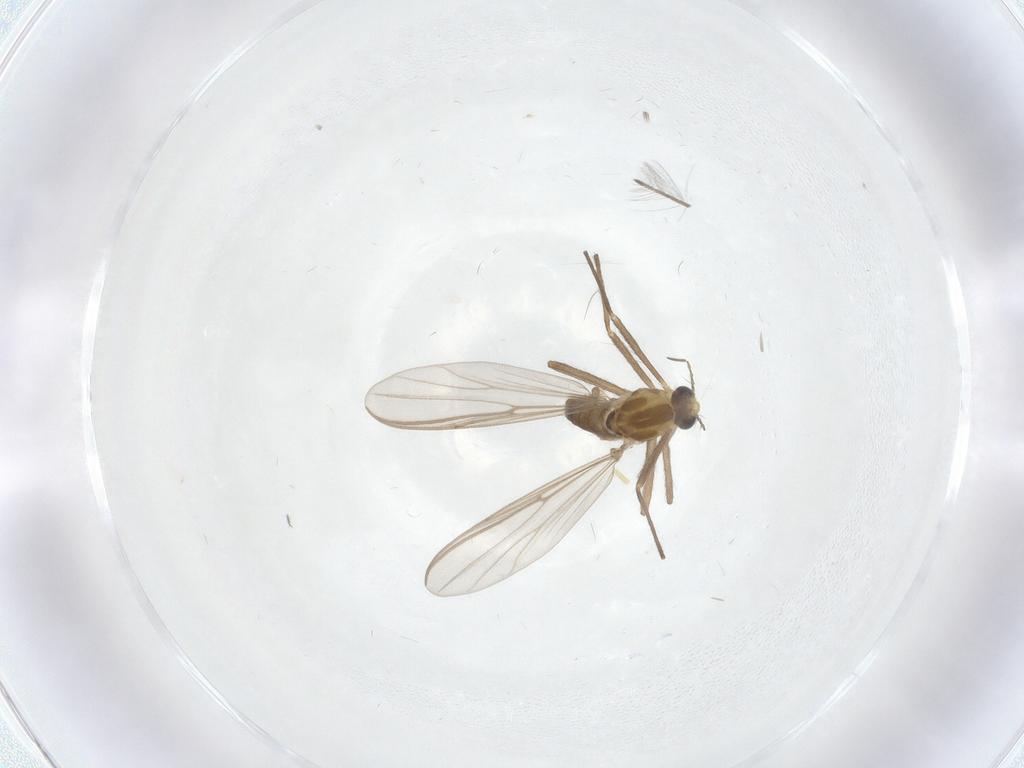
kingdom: Animalia
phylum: Arthropoda
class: Insecta
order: Diptera
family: Chironomidae
